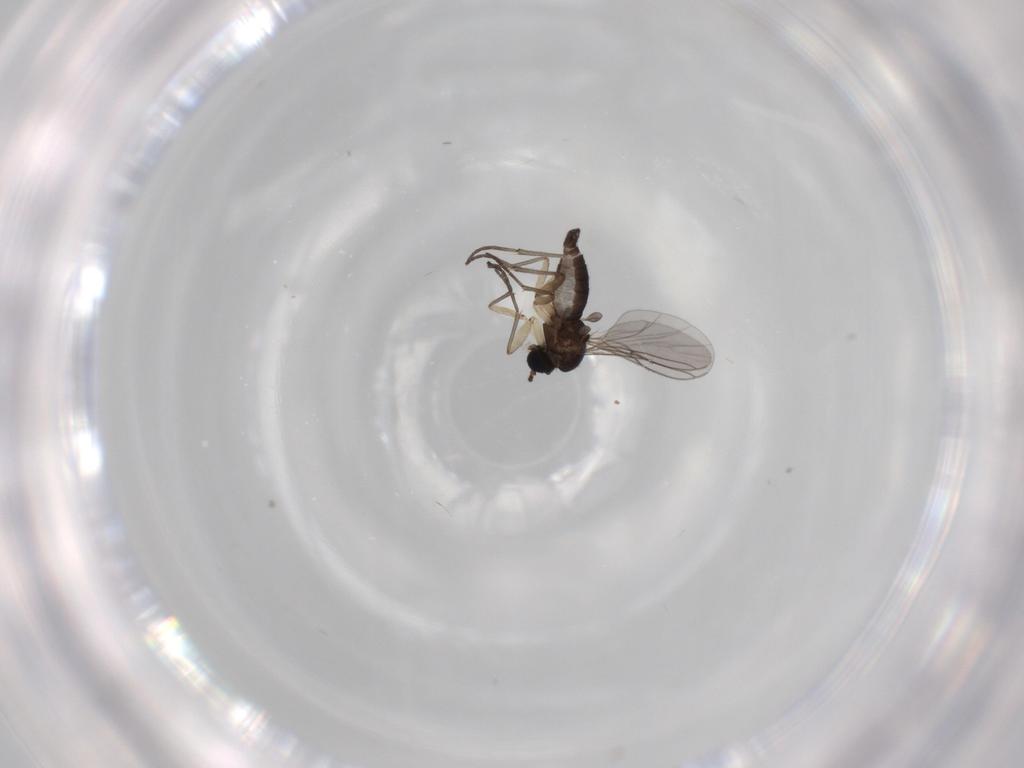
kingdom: Animalia
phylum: Arthropoda
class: Insecta
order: Diptera
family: Sciaridae
